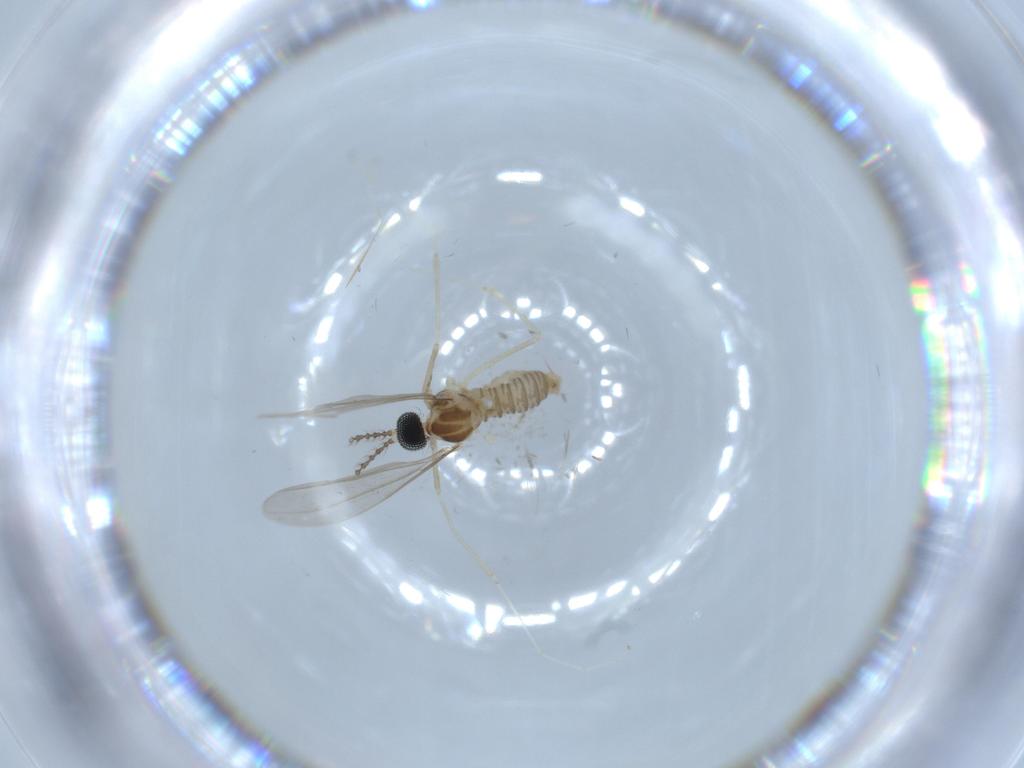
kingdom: Animalia
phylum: Arthropoda
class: Insecta
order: Diptera
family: Cecidomyiidae
